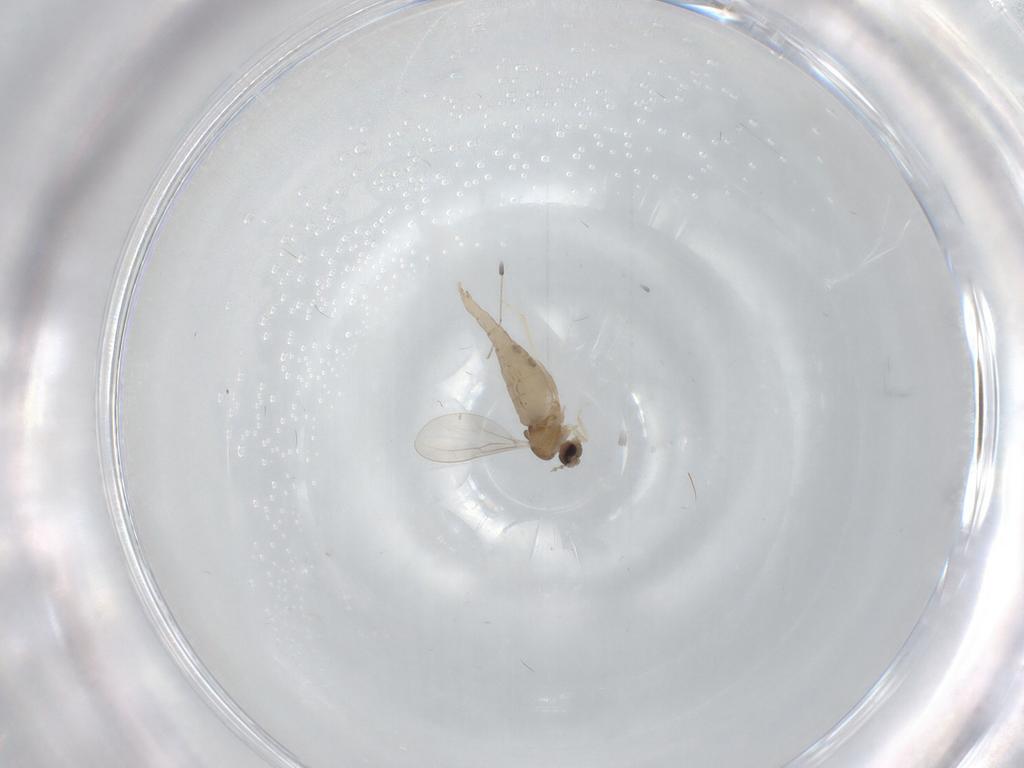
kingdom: Animalia
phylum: Arthropoda
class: Insecta
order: Diptera
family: Cecidomyiidae
